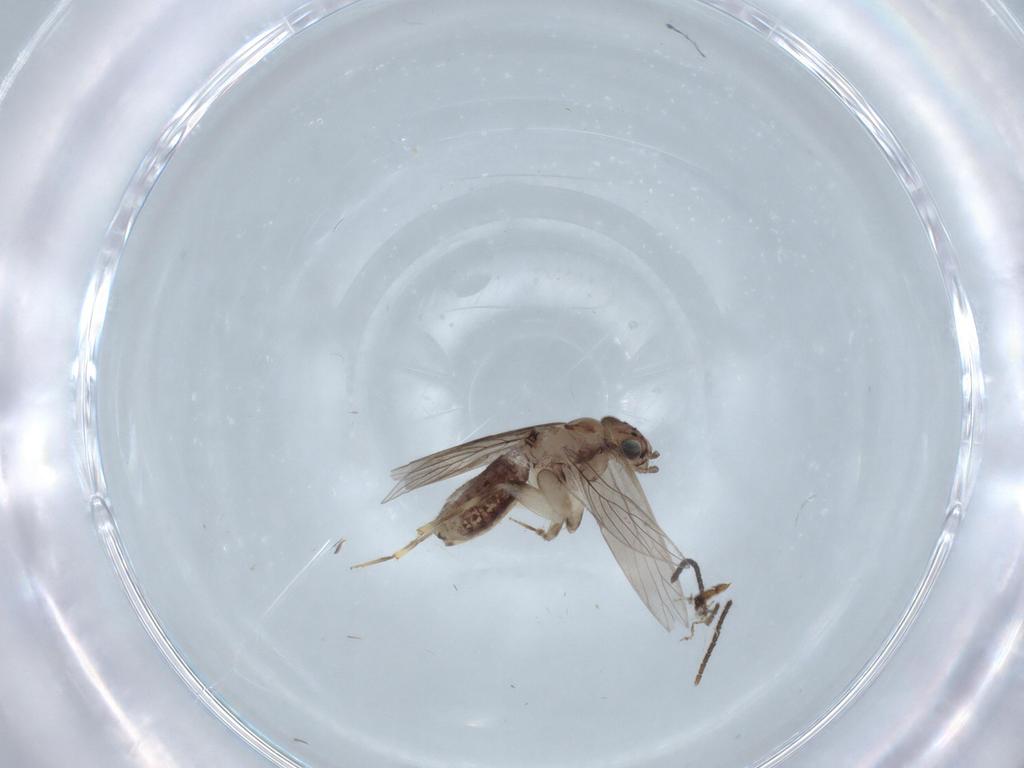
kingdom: Animalia
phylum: Arthropoda
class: Insecta
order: Psocodea
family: Lepidopsocidae
